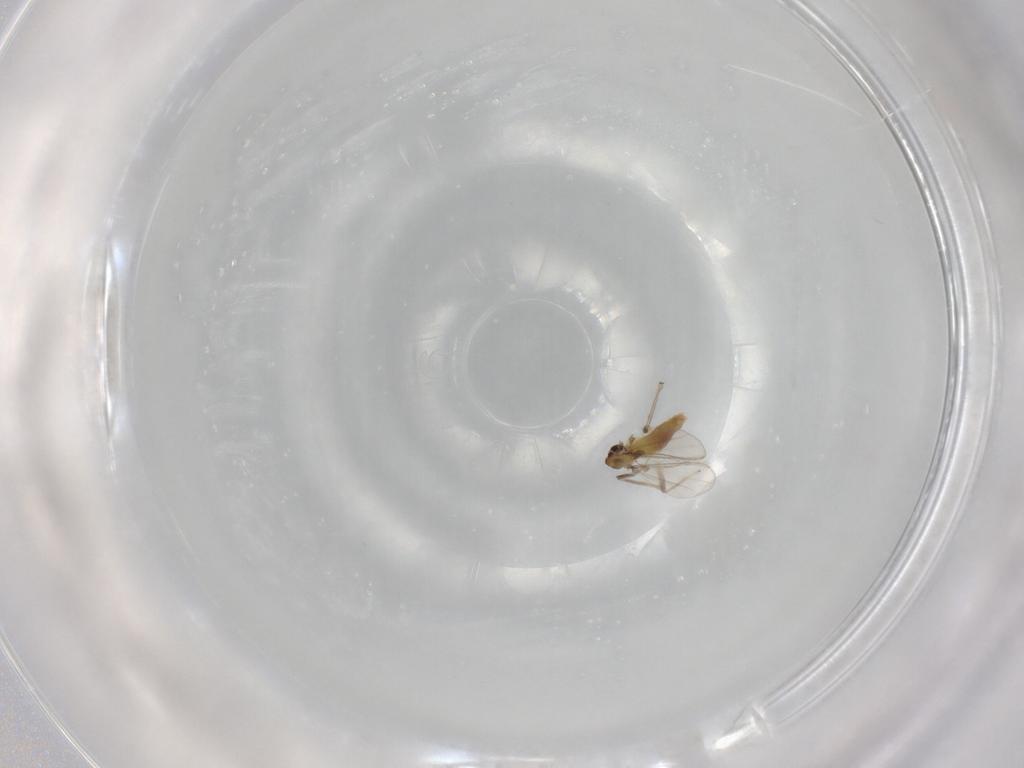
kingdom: Animalia
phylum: Arthropoda
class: Insecta
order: Diptera
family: Chironomidae
